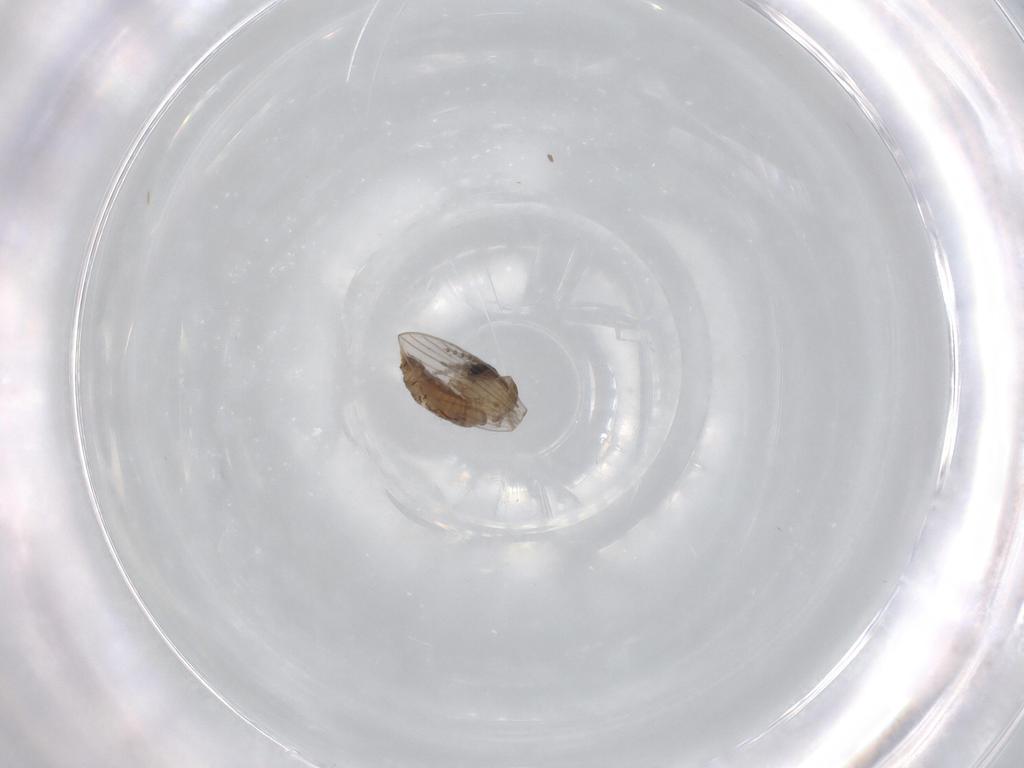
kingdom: Animalia
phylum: Arthropoda
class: Insecta
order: Diptera
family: Psychodidae
